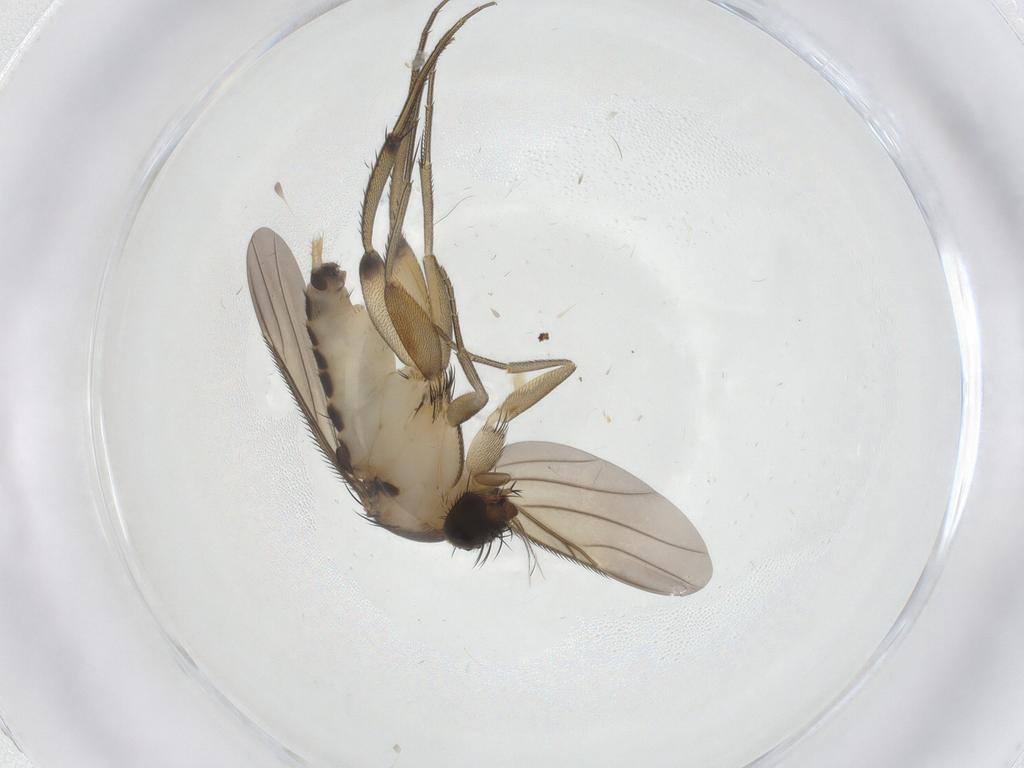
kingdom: Animalia
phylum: Arthropoda
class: Insecta
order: Diptera
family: Phoridae
